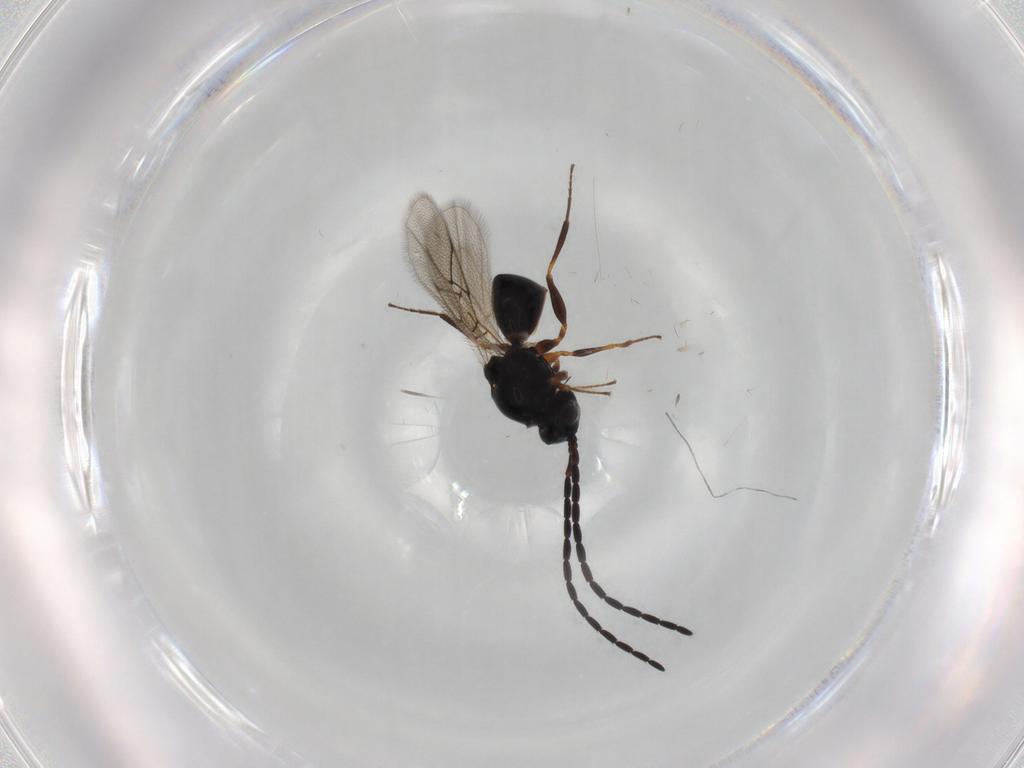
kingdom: Animalia
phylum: Arthropoda
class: Insecta
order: Hymenoptera
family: Figitidae
